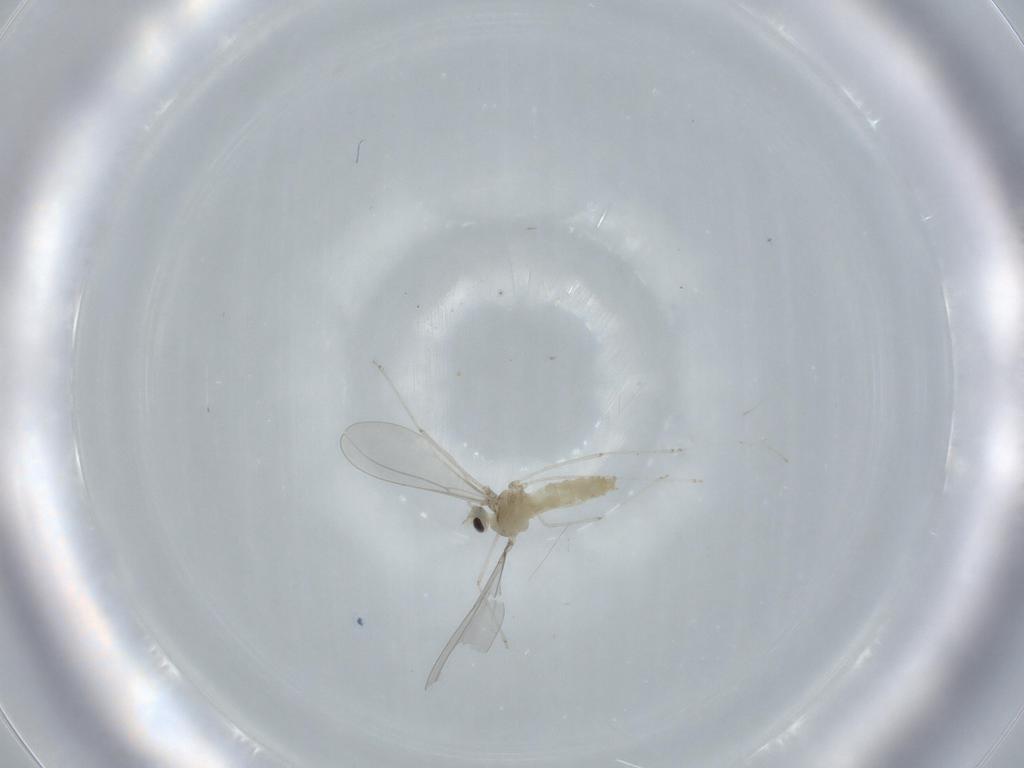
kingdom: Animalia
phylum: Arthropoda
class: Insecta
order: Diptera
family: Cecidomyiidae
